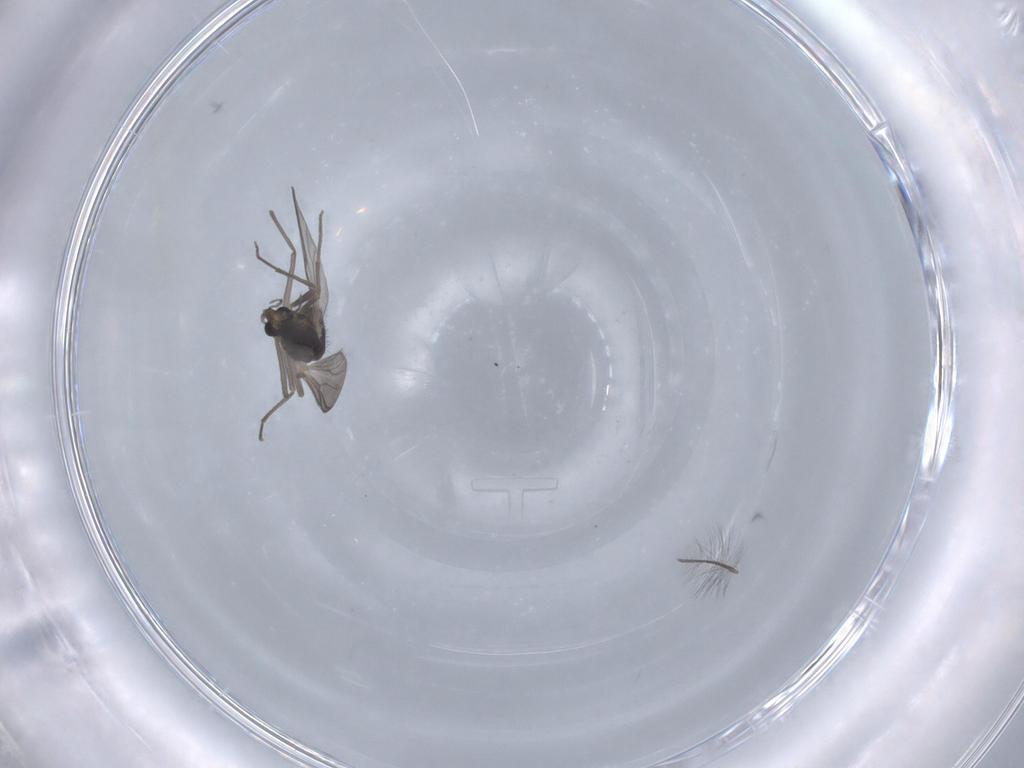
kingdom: Animalia
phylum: Arthropoda
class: Insecta
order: Diptera
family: Chironomidae
